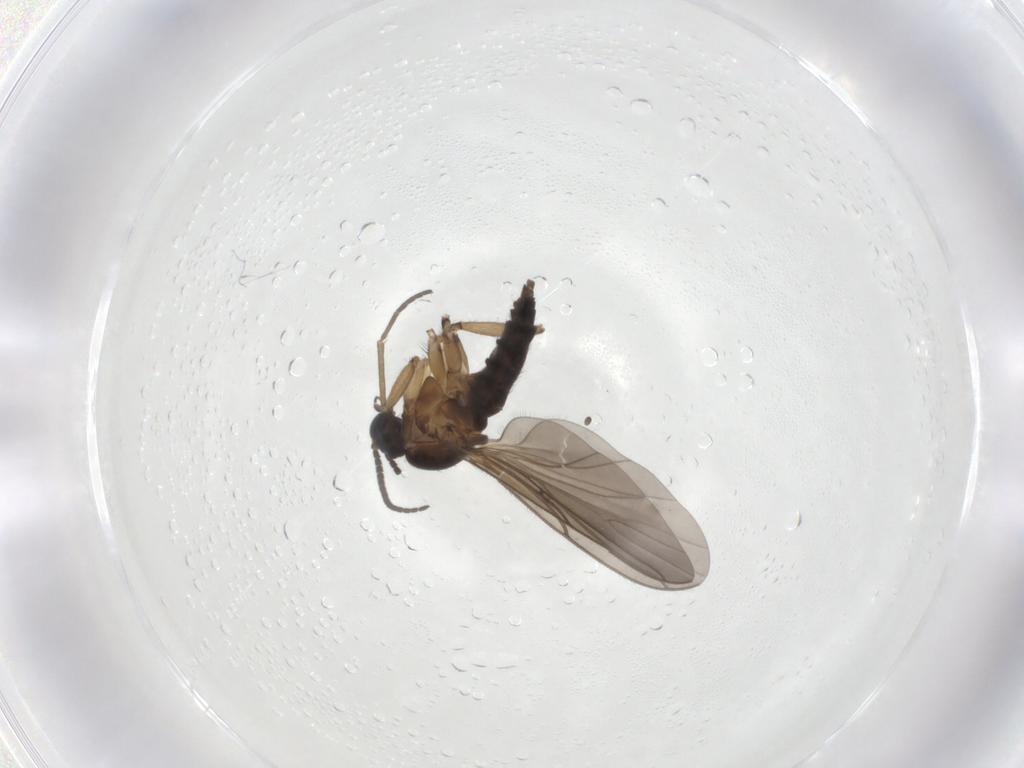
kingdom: Animalia
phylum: Arthropoda
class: Insecta
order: Diptera
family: Sciaridae
